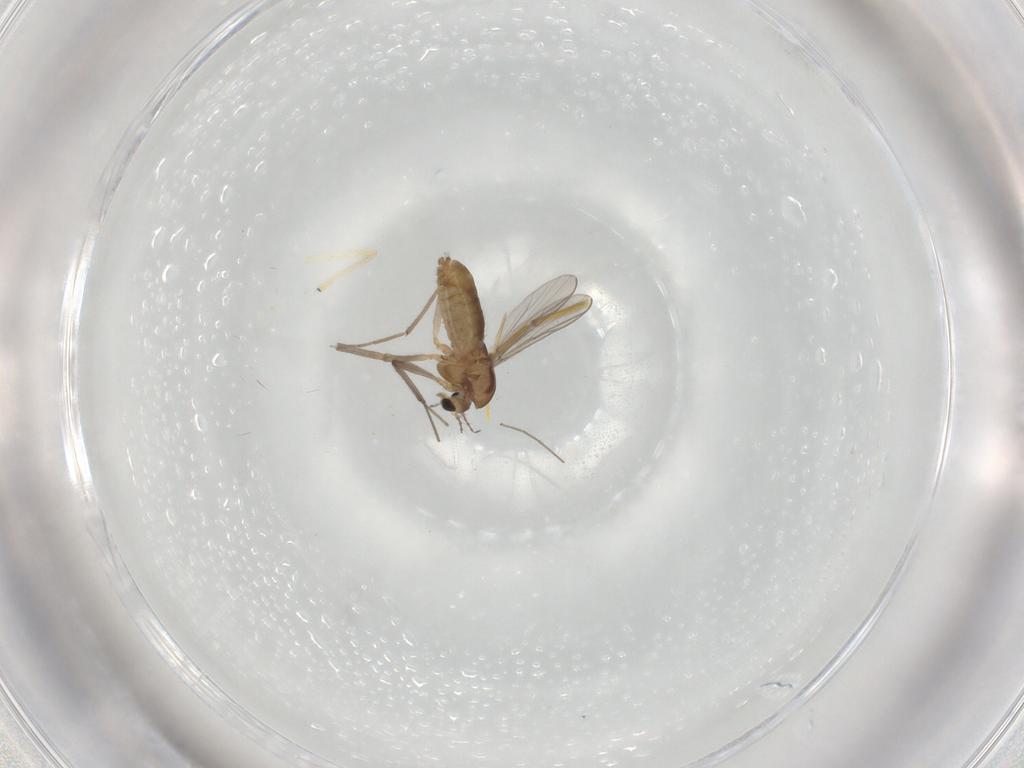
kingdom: Animalia
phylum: Arthropoda
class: Insecta
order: Diptera
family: Chironomidae
